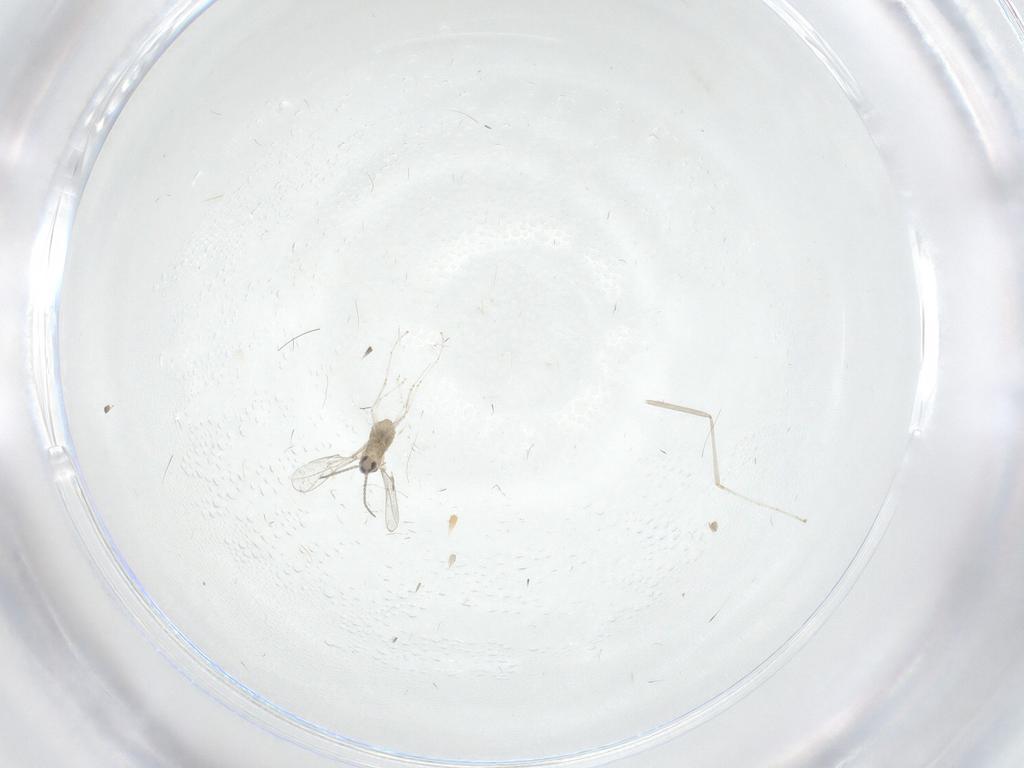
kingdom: Animalia
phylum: Arthropoda
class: Insecta
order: Diptera
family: Cecidomyiidae
